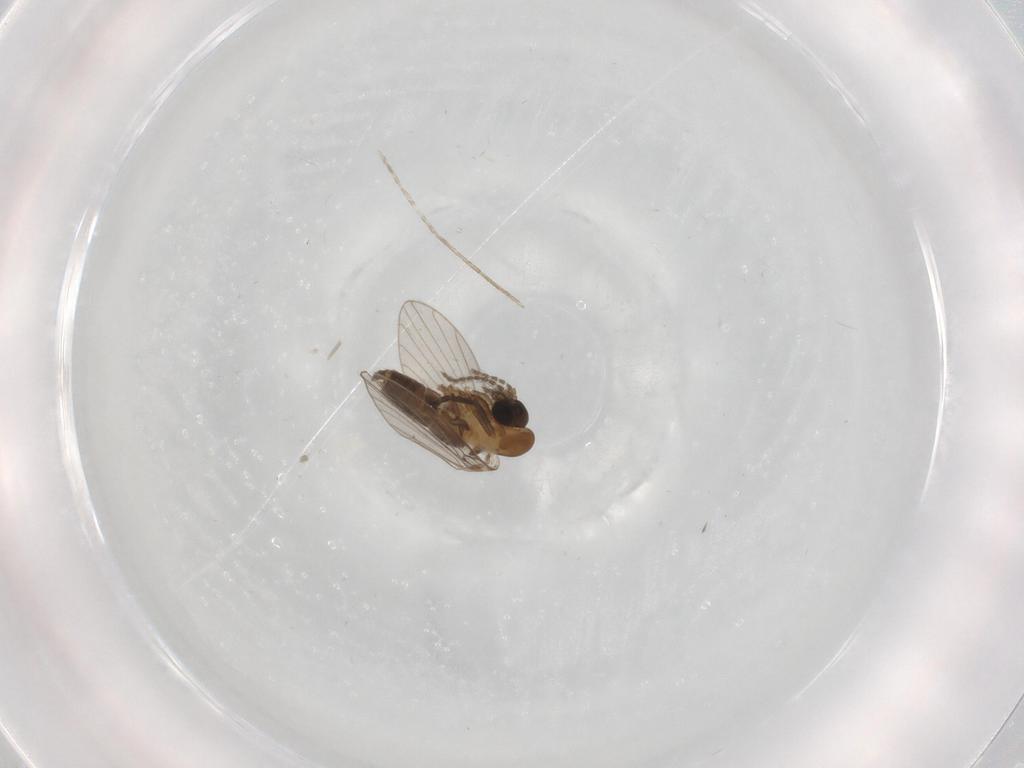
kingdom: Animalia
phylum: Arthropoda
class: Insecta
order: Diptera
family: Psychodidae
